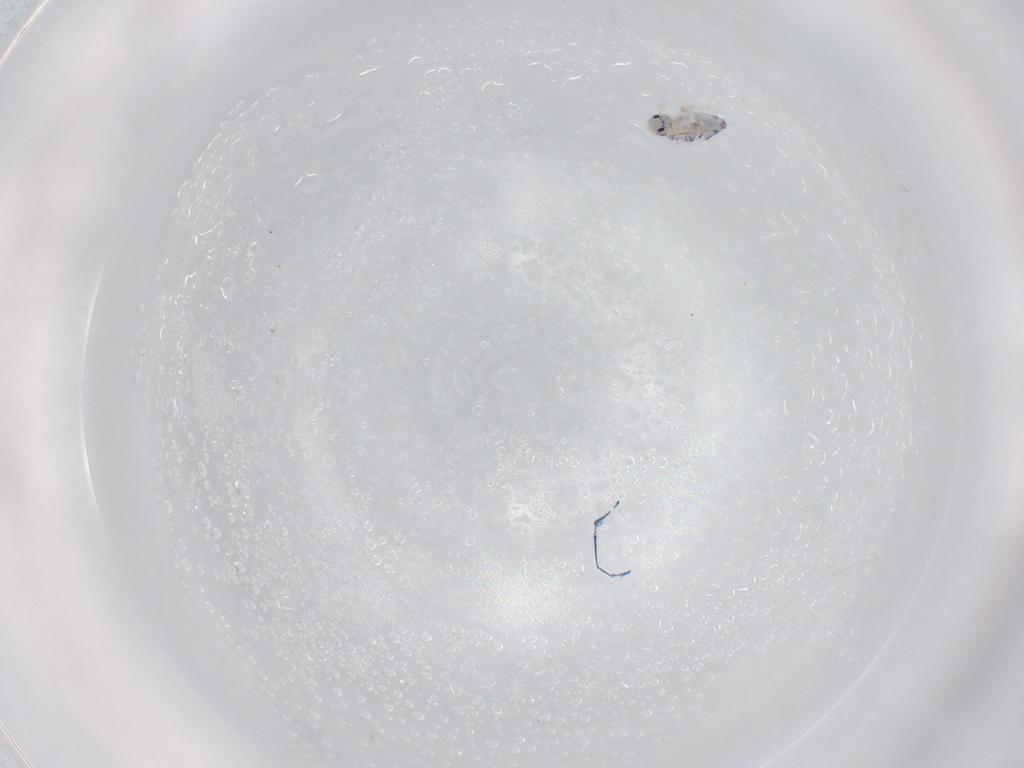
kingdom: Animalia
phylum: Arthropoda
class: Collembola
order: Entomobryomorpha
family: Entomobryidae
